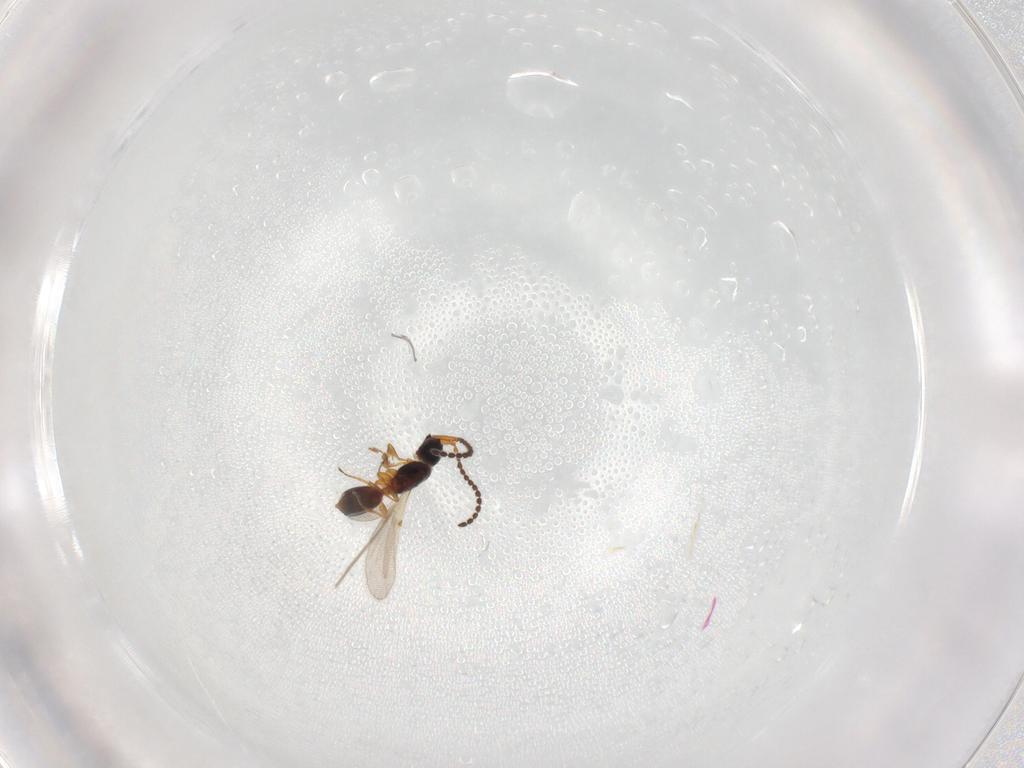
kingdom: Animalia
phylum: Arthropoda
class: Insecta
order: Hymenoptera
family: Diapriidae
